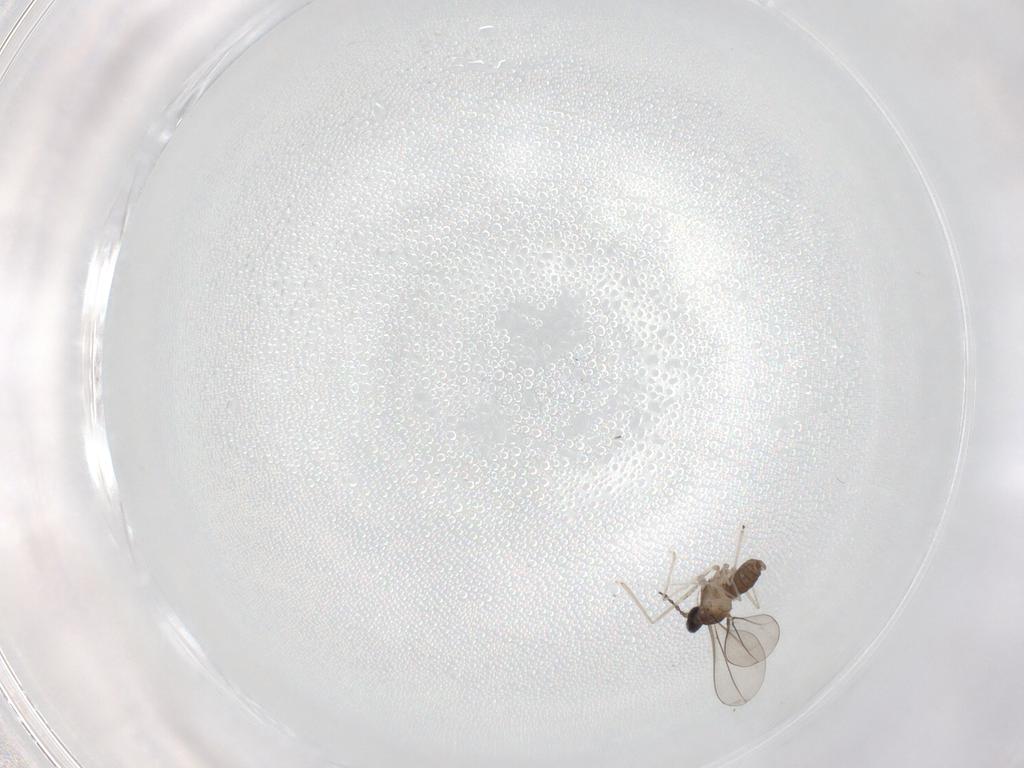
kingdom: Animalia
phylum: Arthropoda
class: Insecta
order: Diptera
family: Cecidomyiidae
